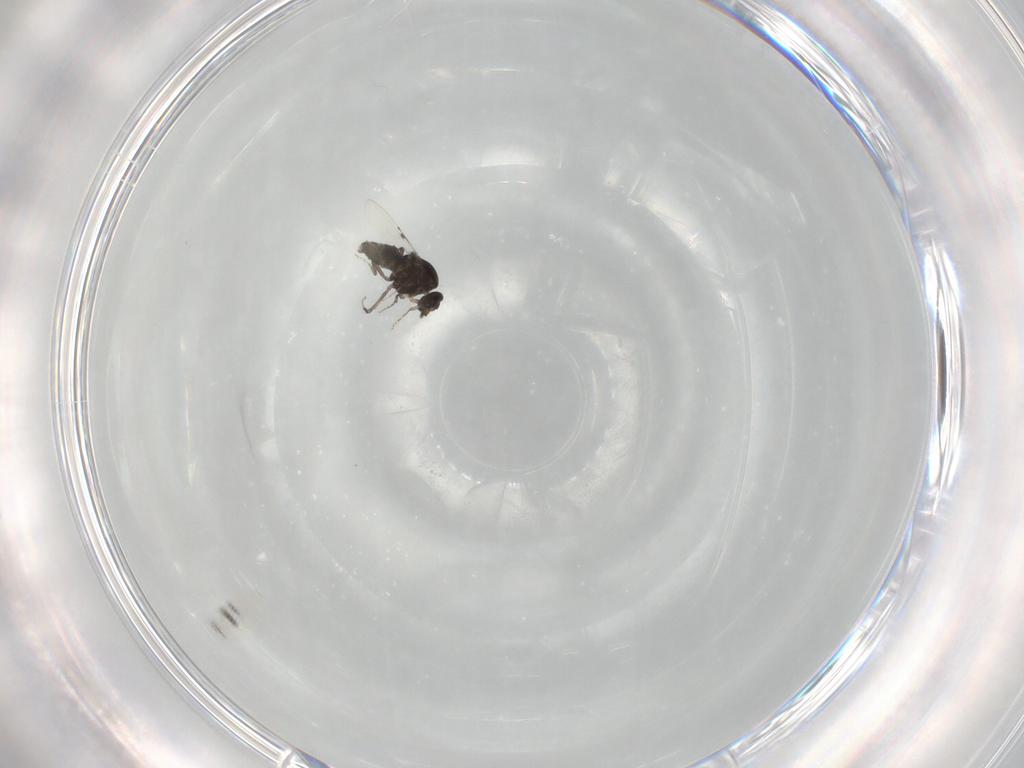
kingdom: Animalia
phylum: Arthropoda
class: Insecta
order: Diptera
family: Ceratopogonidae
